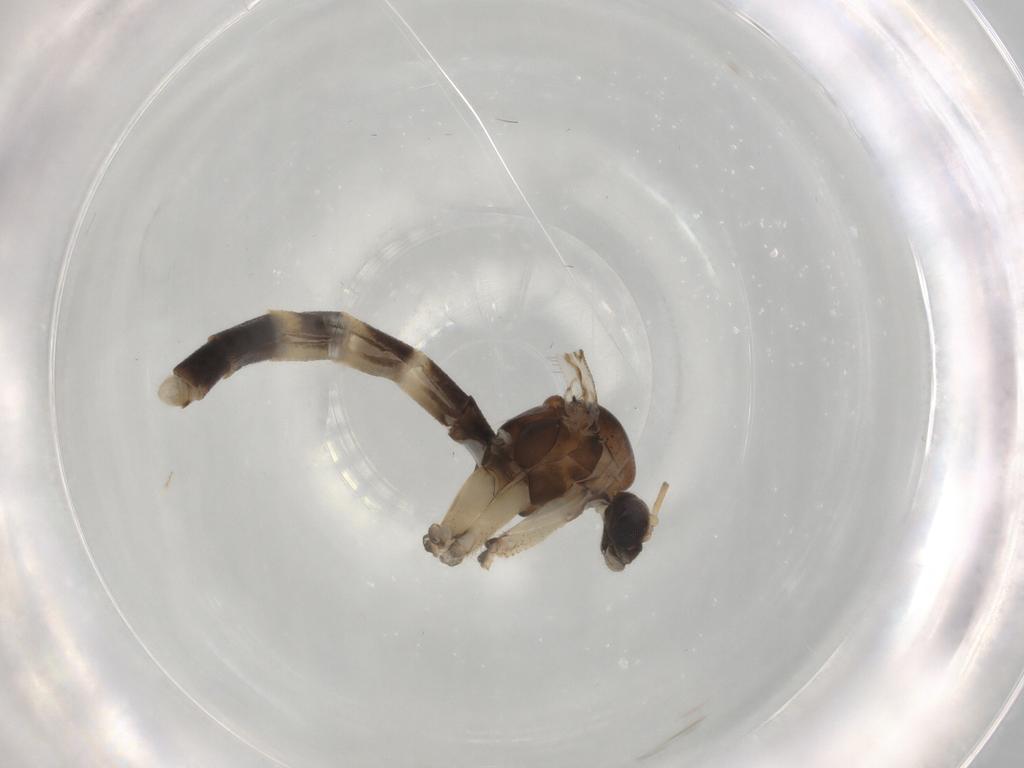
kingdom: Animalia
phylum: Arthropoda
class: Insecta
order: Diptera
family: Mycetophilidae
